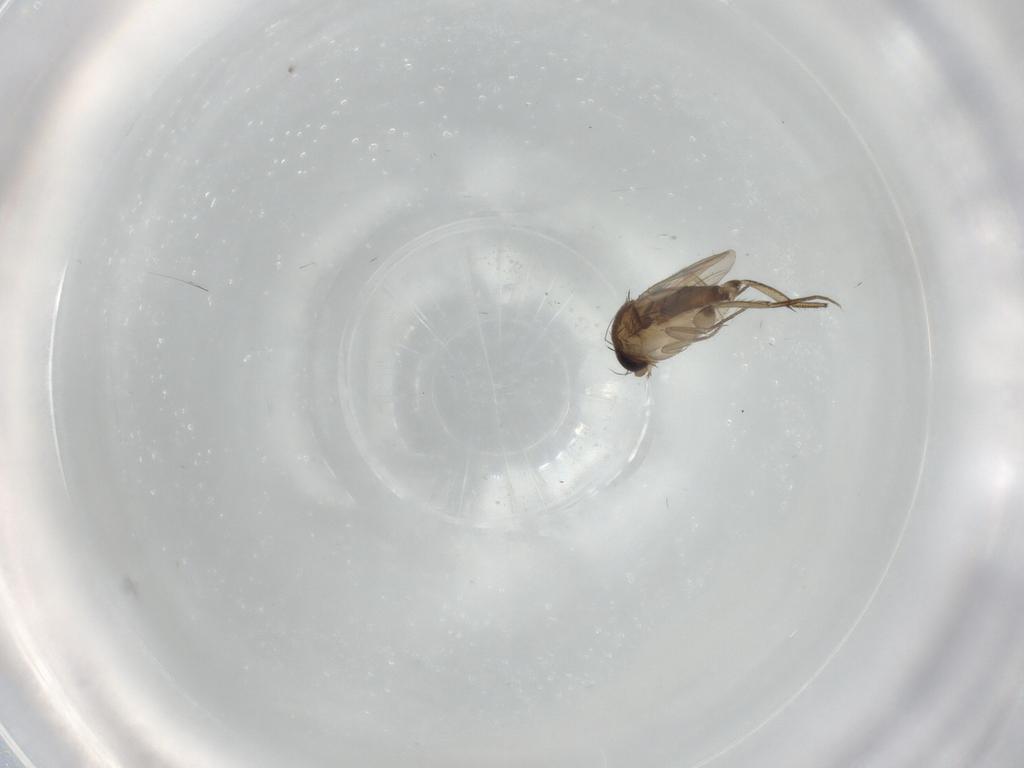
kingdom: Animalia
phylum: Arthropoda
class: Insecta
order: Diptera
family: Phoridae
